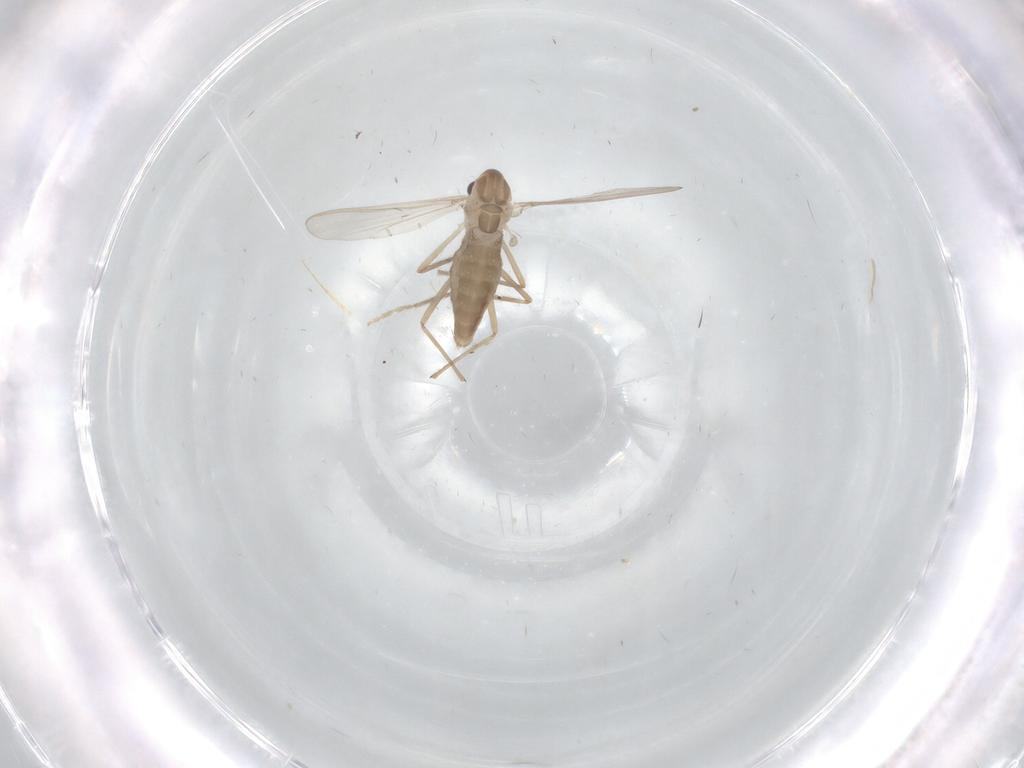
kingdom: Animalia
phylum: Arthropoda
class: Insecta
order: Diptera
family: Chironomidae
